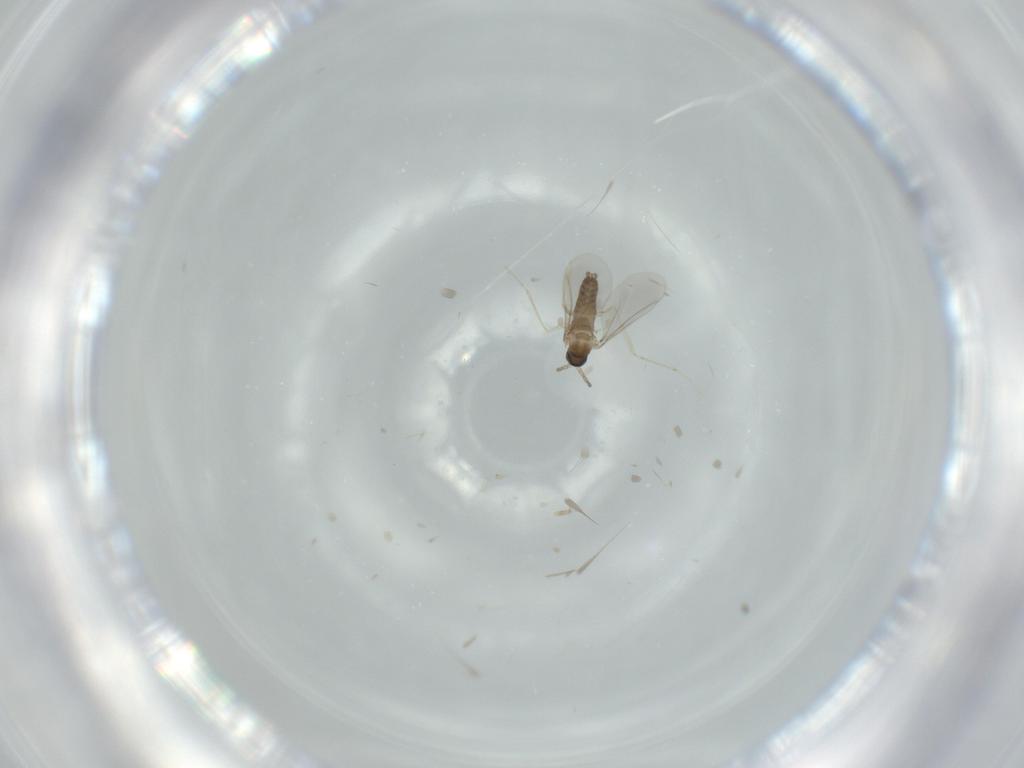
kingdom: Animalia
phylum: Arthropoda
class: Insecta
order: Diptera
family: Cecidomyiidae
